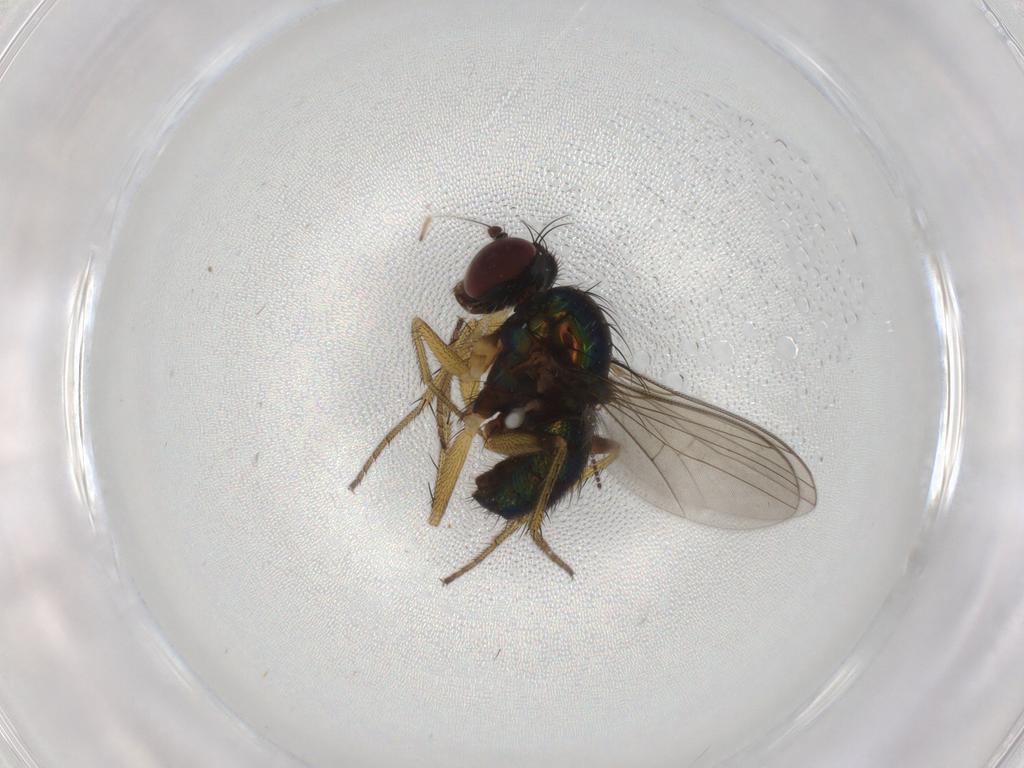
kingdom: Animalia
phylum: Arthropoda
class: Insecta
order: Diptera
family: Dolichopodidae
